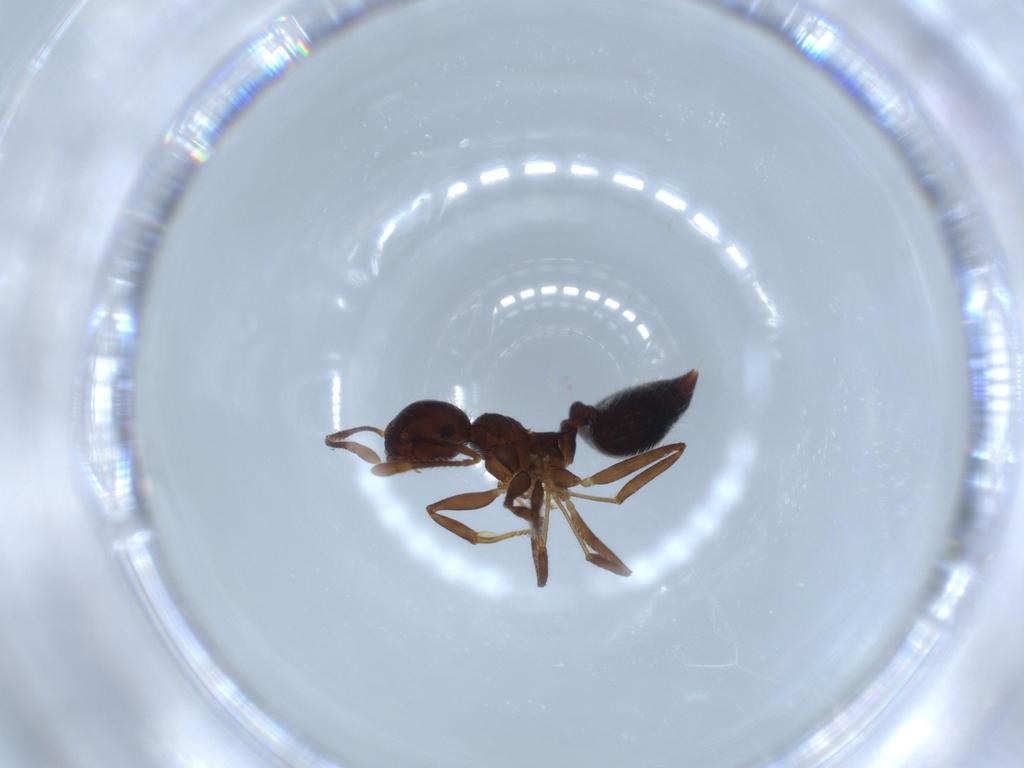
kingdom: Animalia
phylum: Arthropoda
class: Insecta
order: Hymenoptera
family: Formicidae
